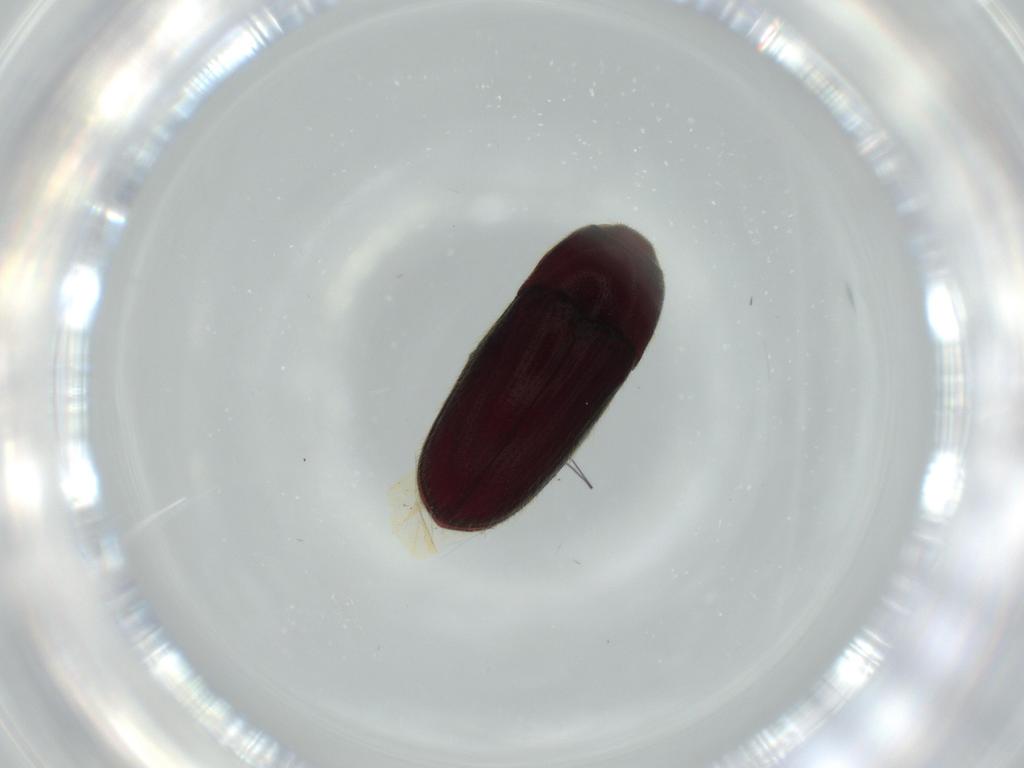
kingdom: Animalia
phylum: Arthropoda
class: Insecta
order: Coleoptera
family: Throscidae
